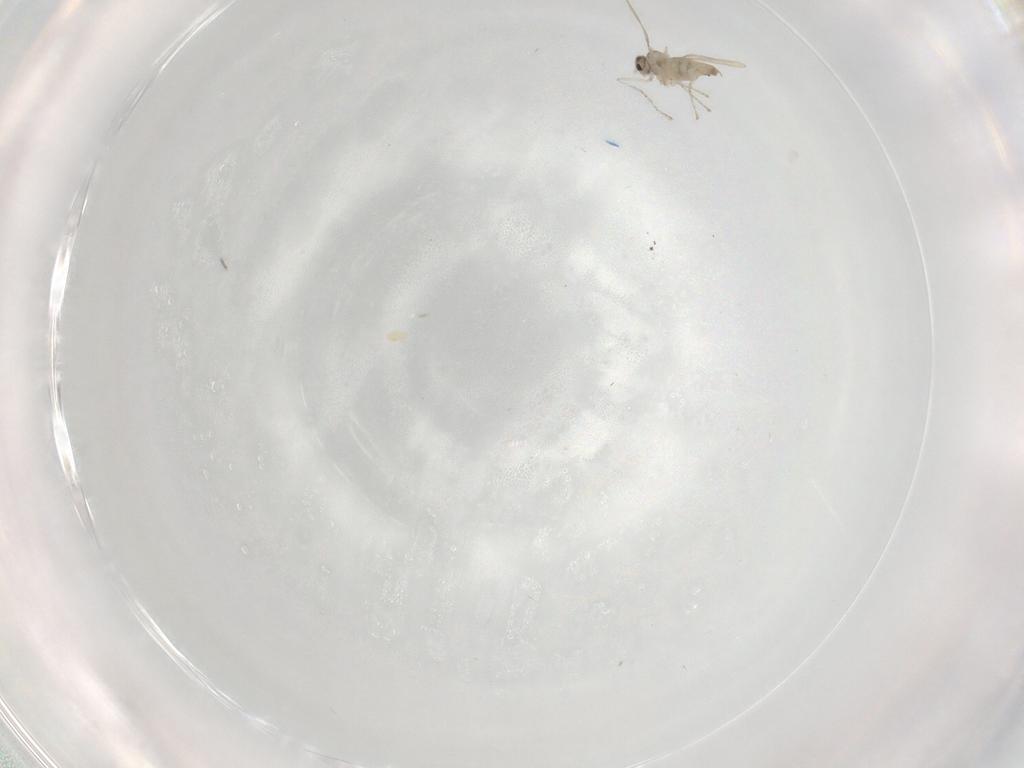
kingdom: Animalia
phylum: Arthropoda
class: Insecta
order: Diptera
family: Cecidomyiidae
